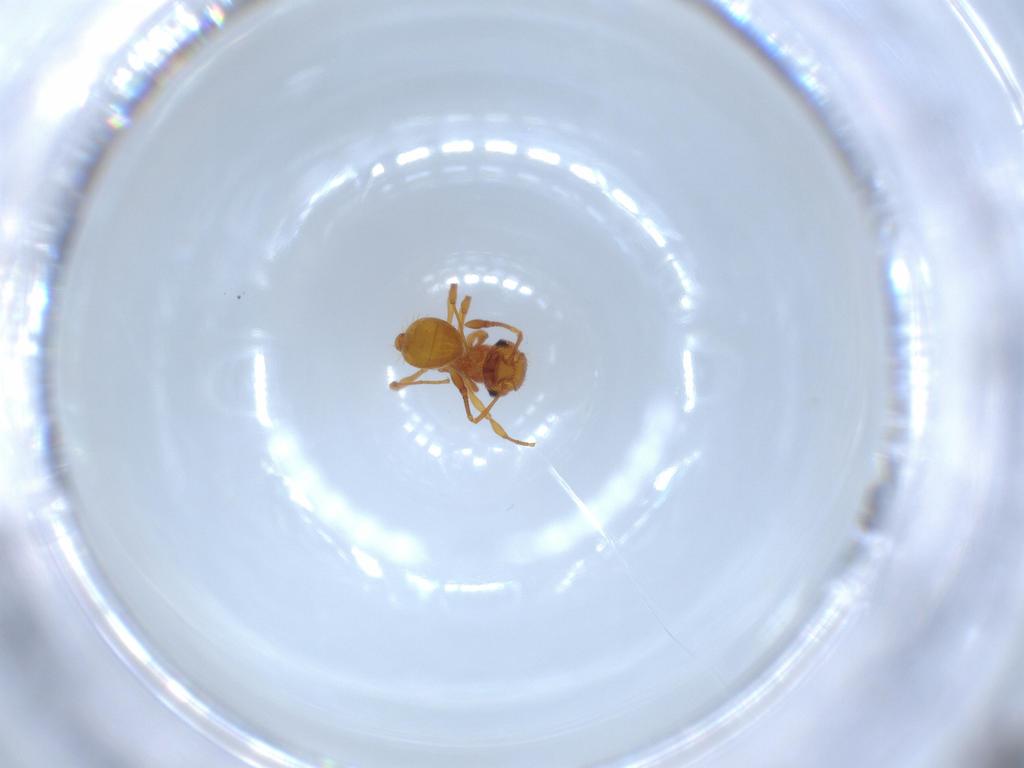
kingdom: Animalia
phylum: Arthropoda
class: Insecta
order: Hymenoptera
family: Formicidae
